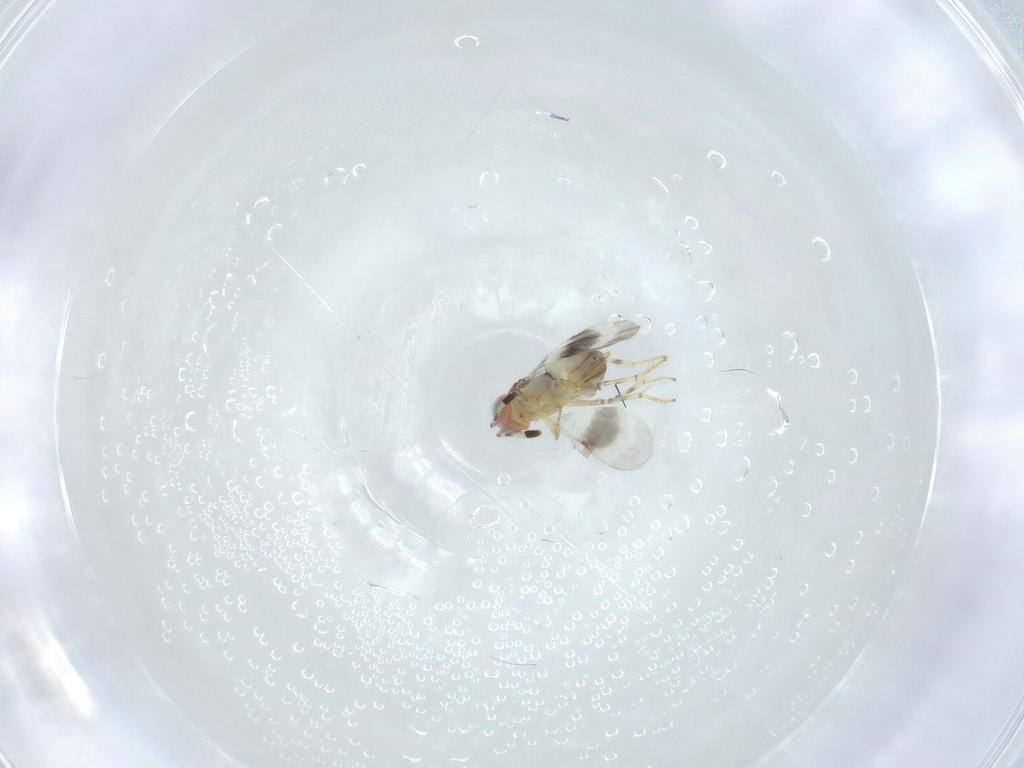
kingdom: Animalia
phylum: Arthropoda
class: Insecta
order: Hymenoptera
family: Encyrtidae
